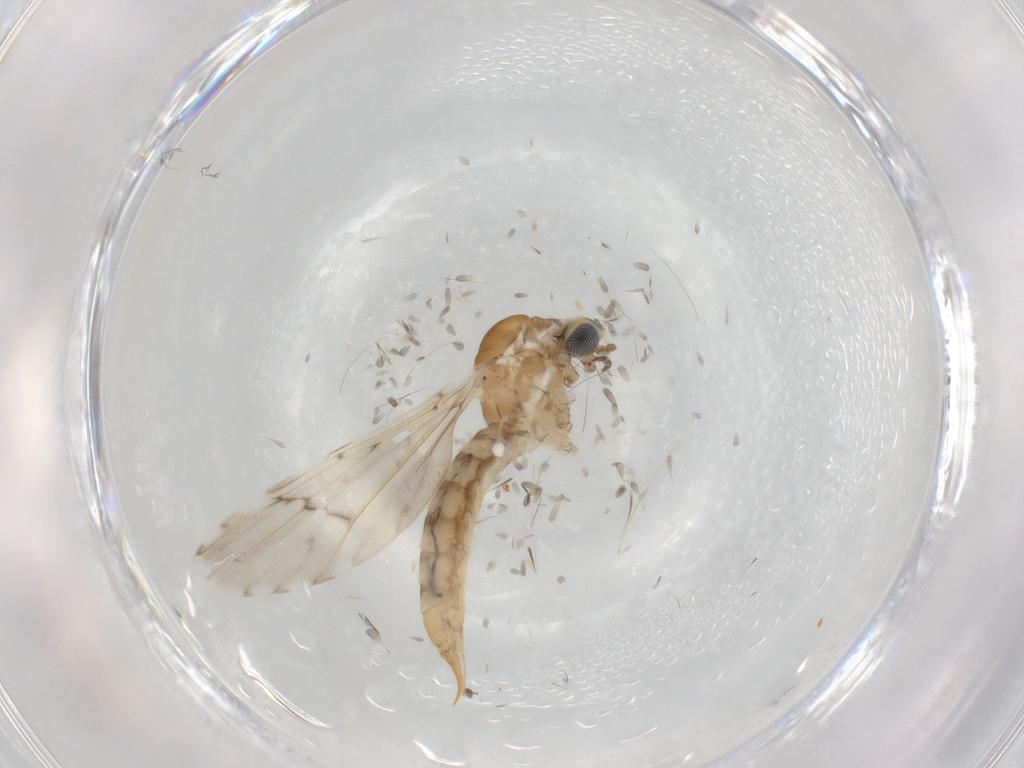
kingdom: Animalia
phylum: Arthropoda
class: Insecta
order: Diptera
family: Limoniidae
